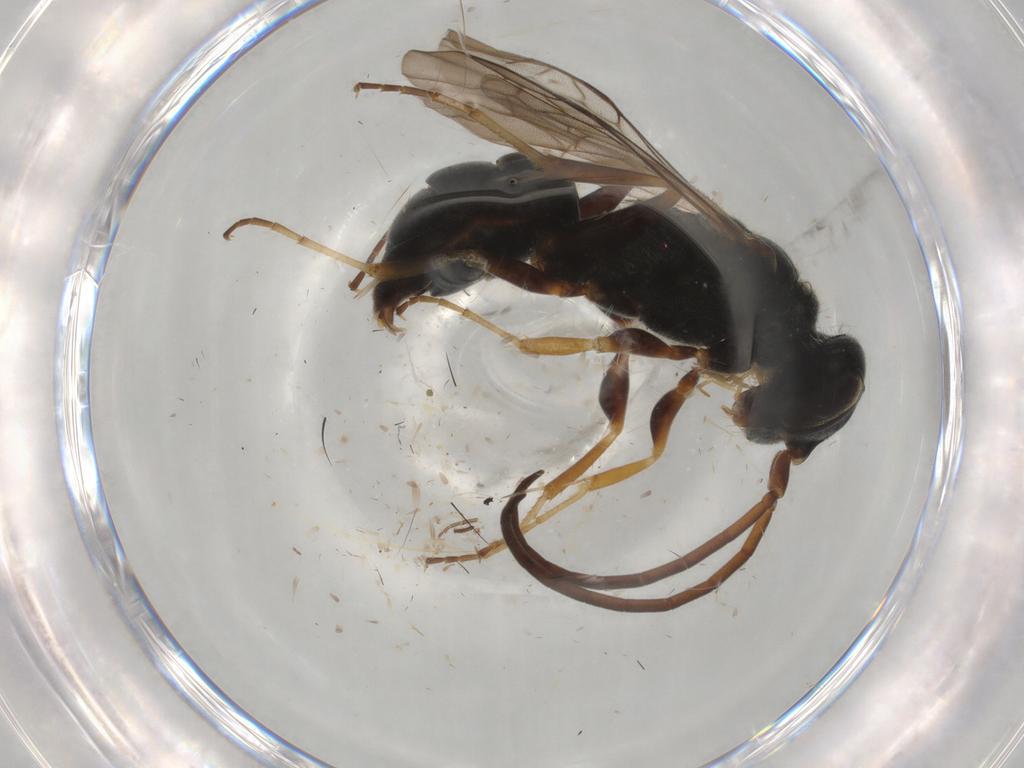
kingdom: Animalia
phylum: Arthropoda
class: Insecta
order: Hymenoptera
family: Ampulicidae
